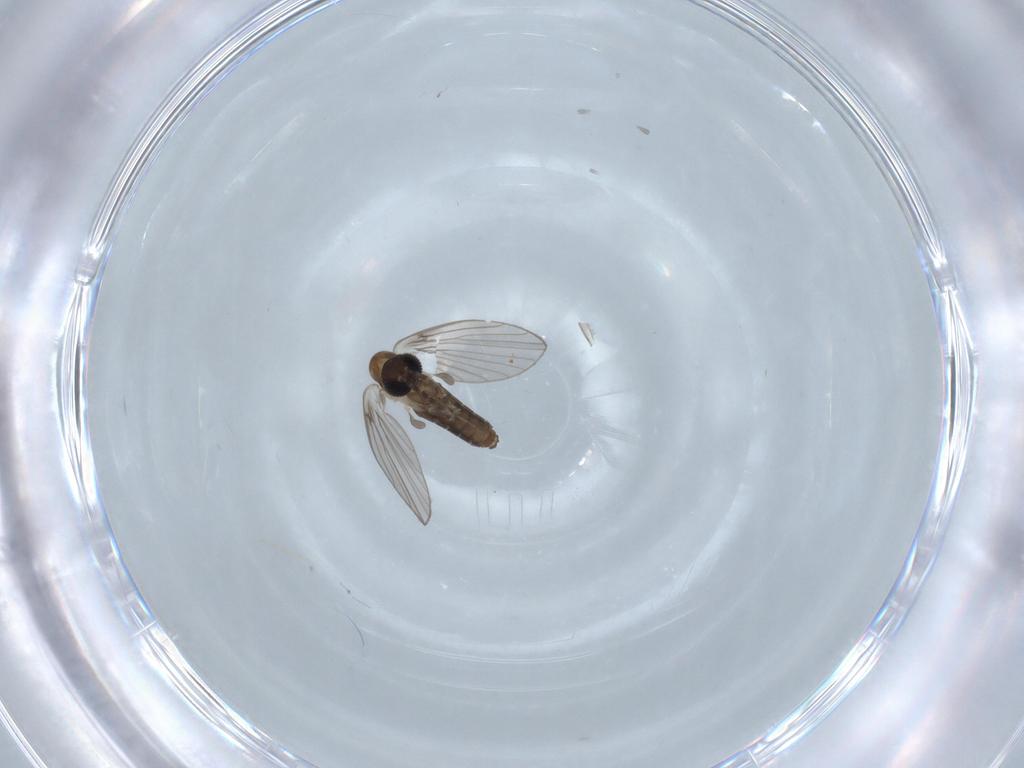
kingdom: Animalia
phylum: Arthropoda
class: Insecta
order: Diptera
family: Psychodidae
